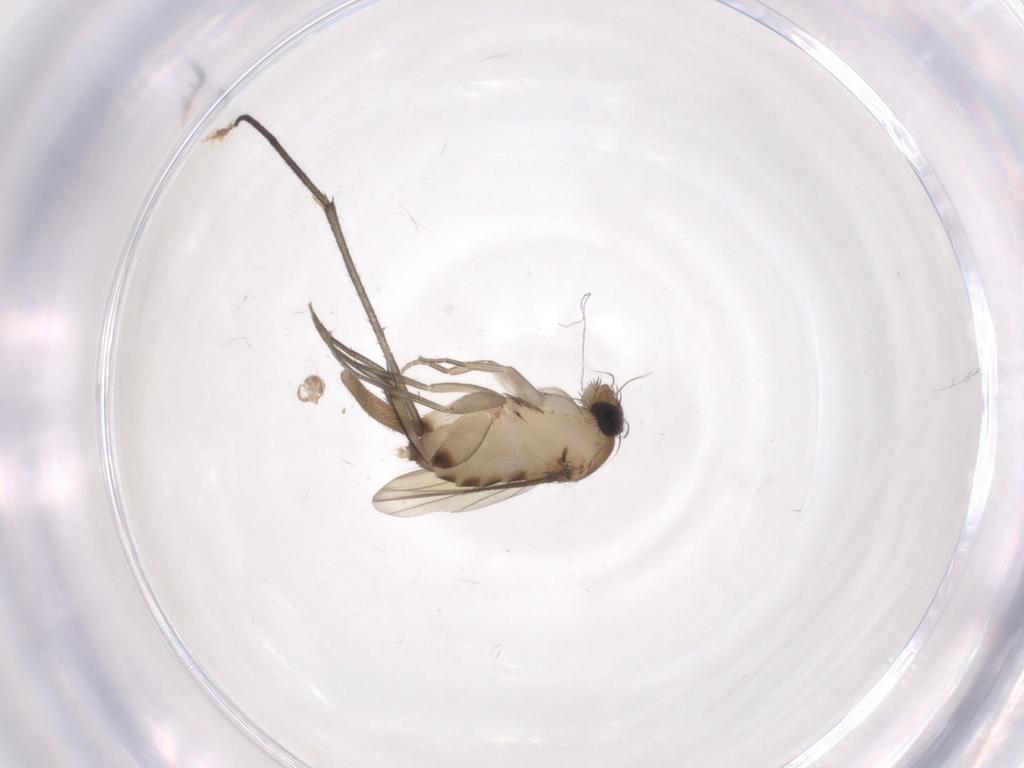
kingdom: Animalia
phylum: Arthropoda
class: Insecta
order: Diptera
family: Phoridae
